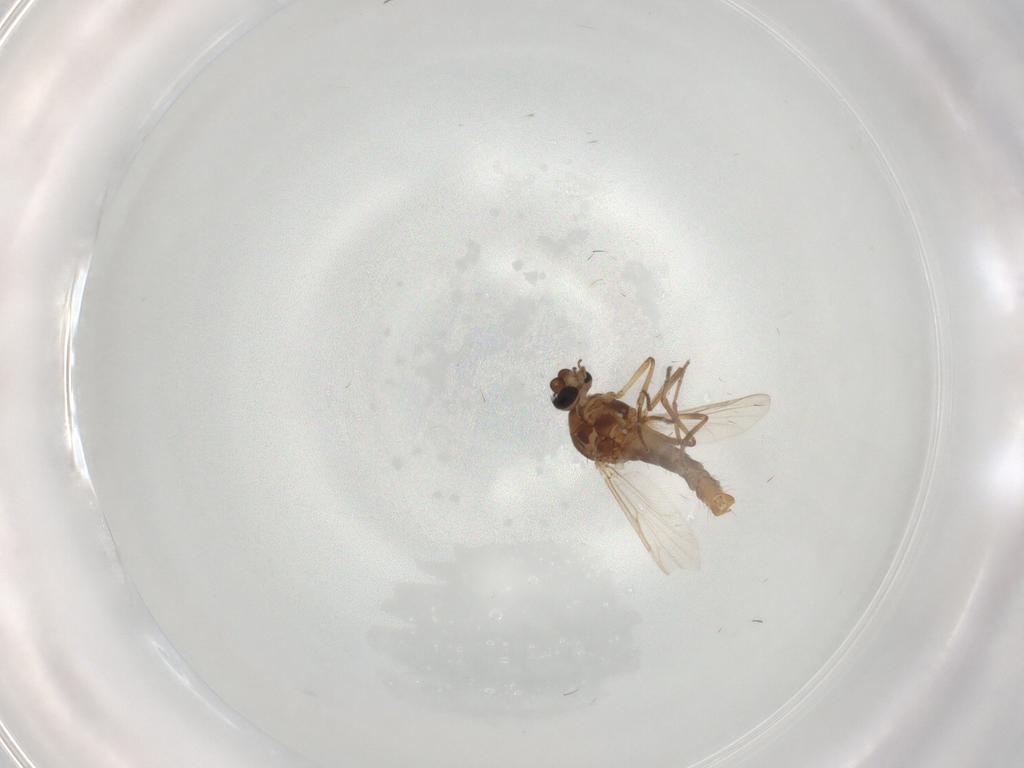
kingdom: Animalia
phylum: Arthropoda
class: Insecta
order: Diptera
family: Ceratopogonidae
